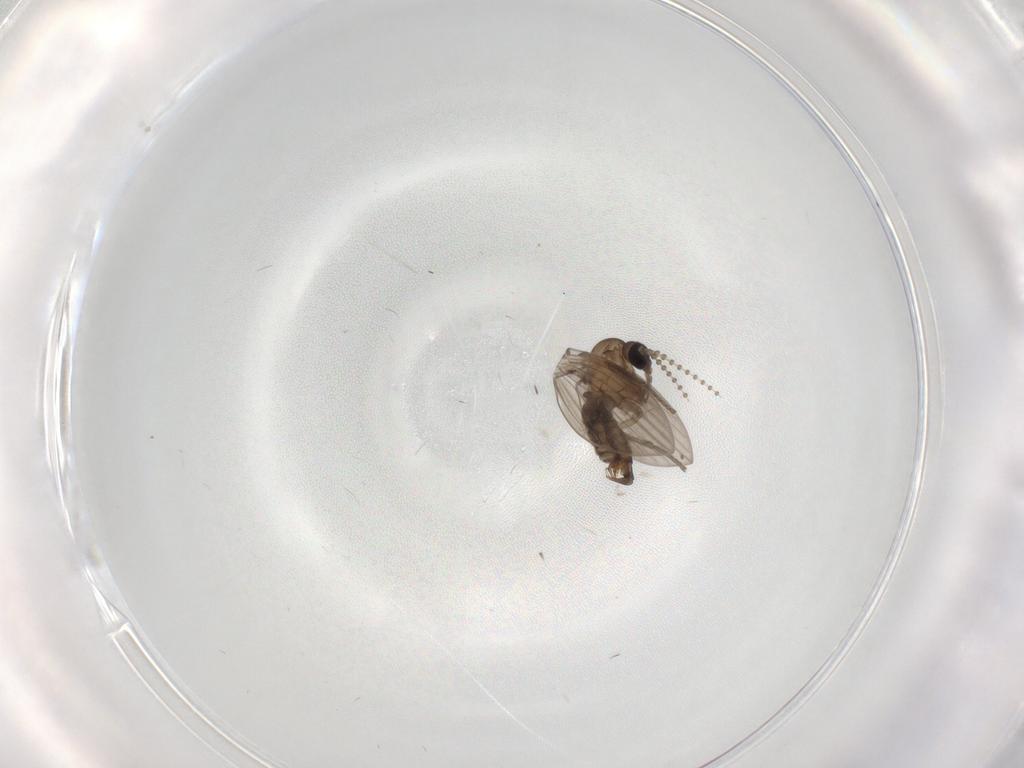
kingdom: Animalia
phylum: Arthropoda
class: Insecta
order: Diptera
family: Psychodidae
